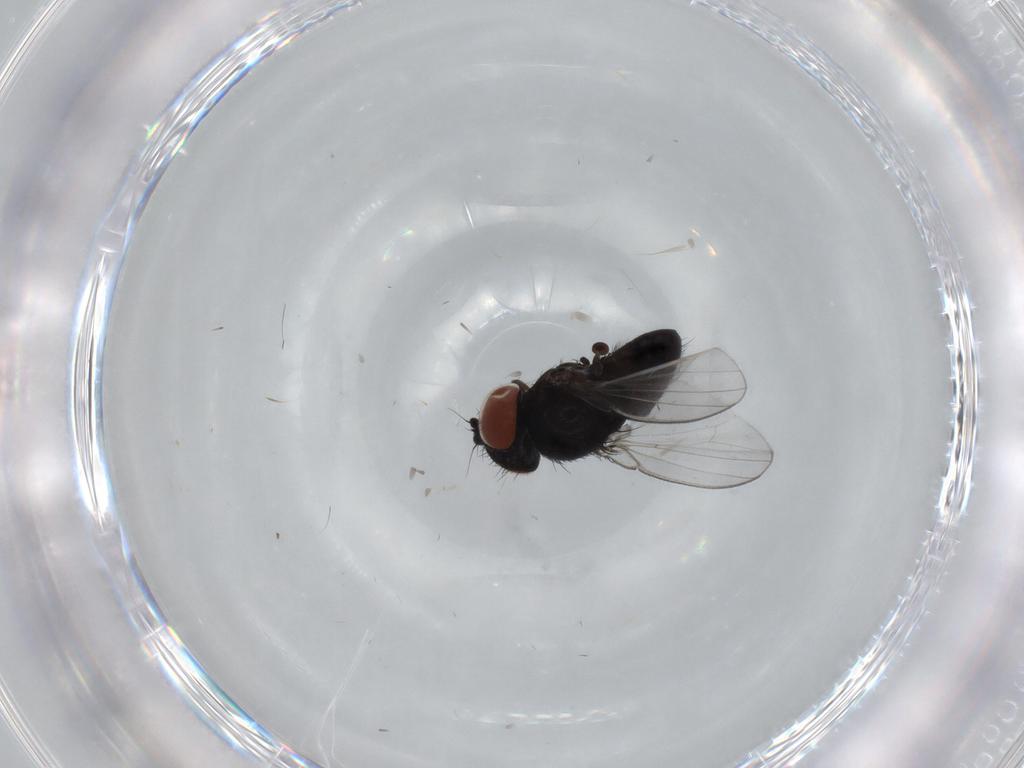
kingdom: Animalia
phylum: Arthropoda
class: Insecta
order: Diptera
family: Milichiidae
